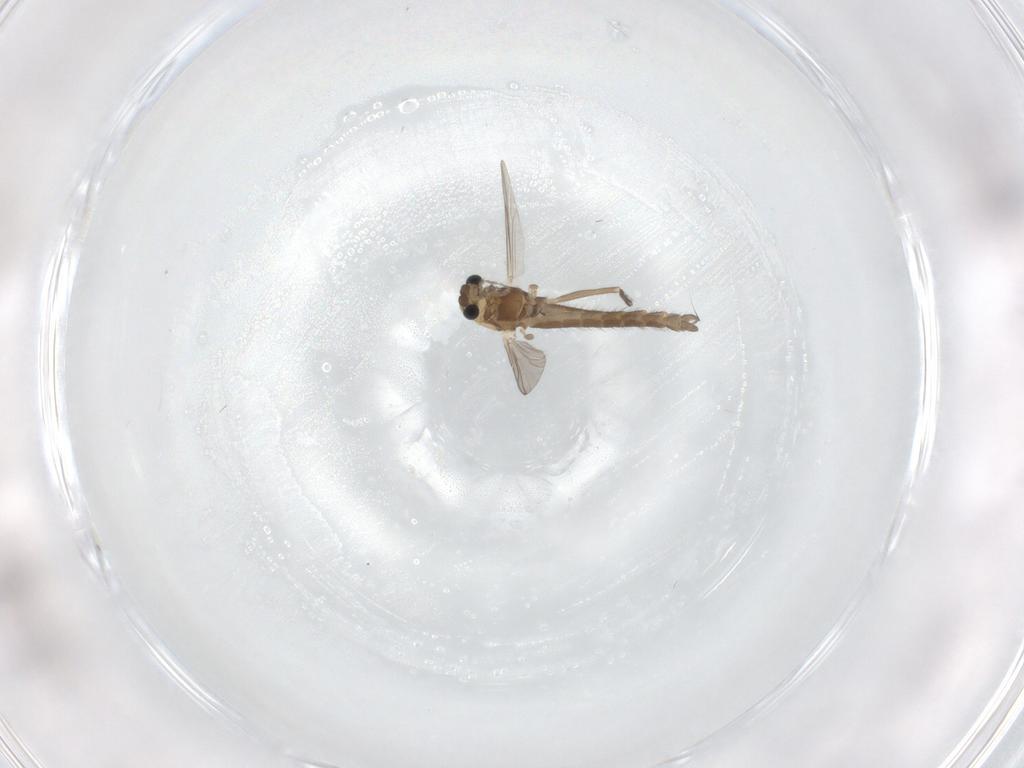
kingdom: Animalia
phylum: Arthropoda
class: Insecta
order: Diptera
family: Chironomidae
